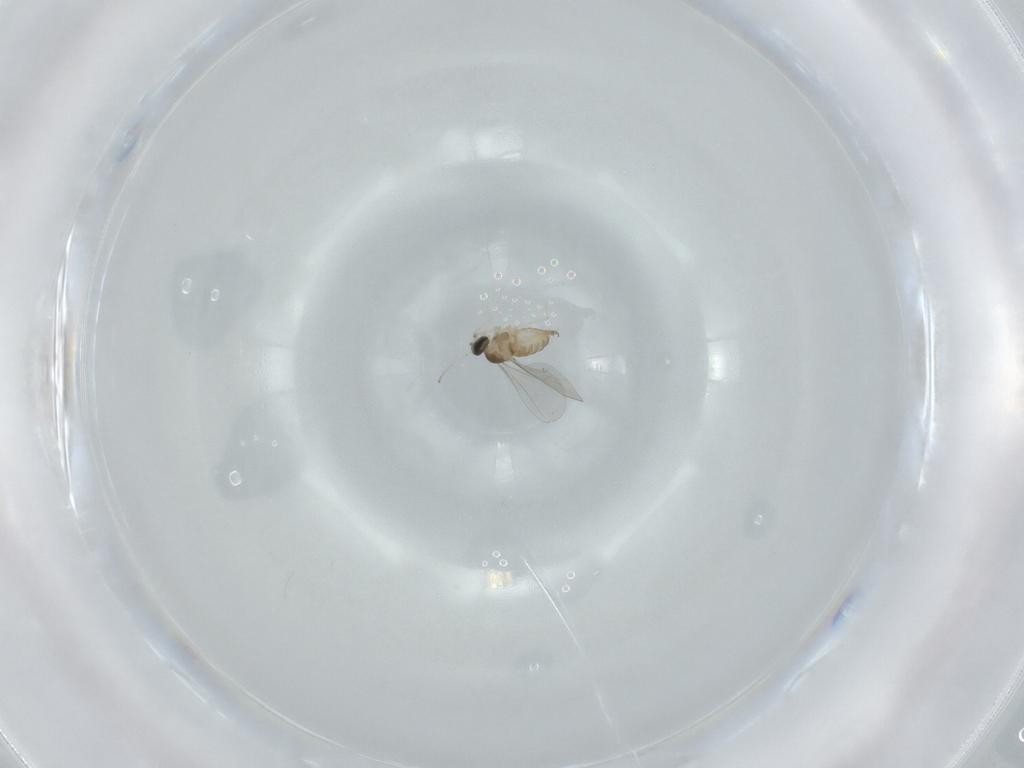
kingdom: Animalia
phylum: Arthropoda
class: Insecta
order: Diptera
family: Cecidomyiidae
